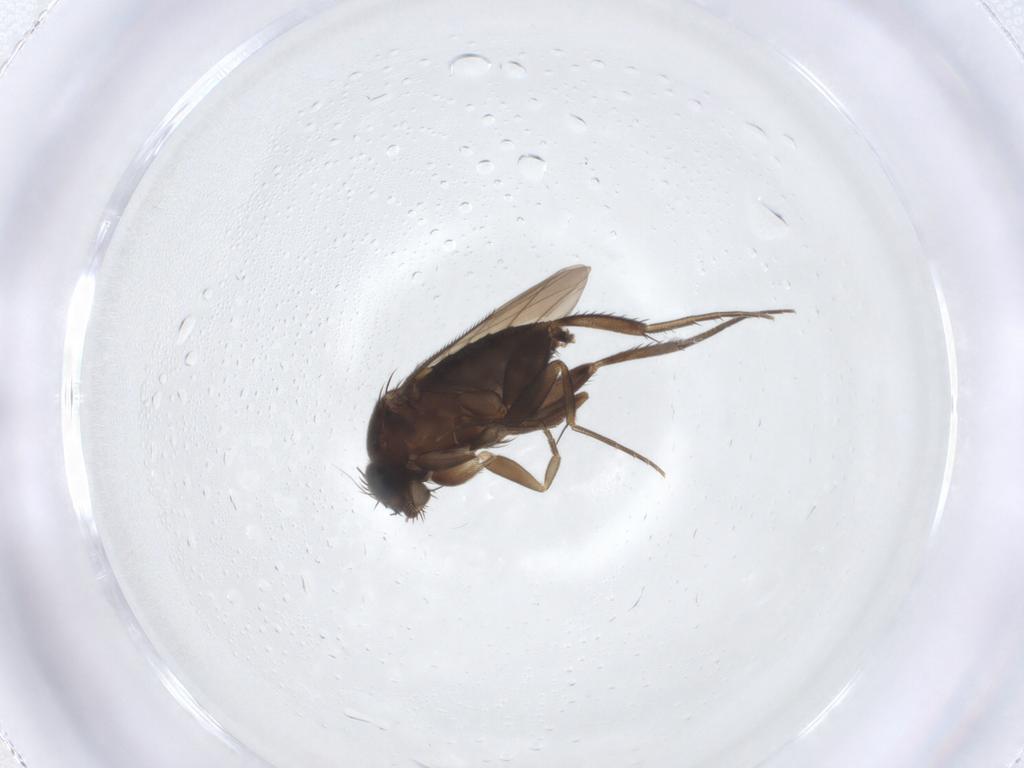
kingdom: Animalia
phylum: Arthropoda
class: Insecta
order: Diptera
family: Phoridae
